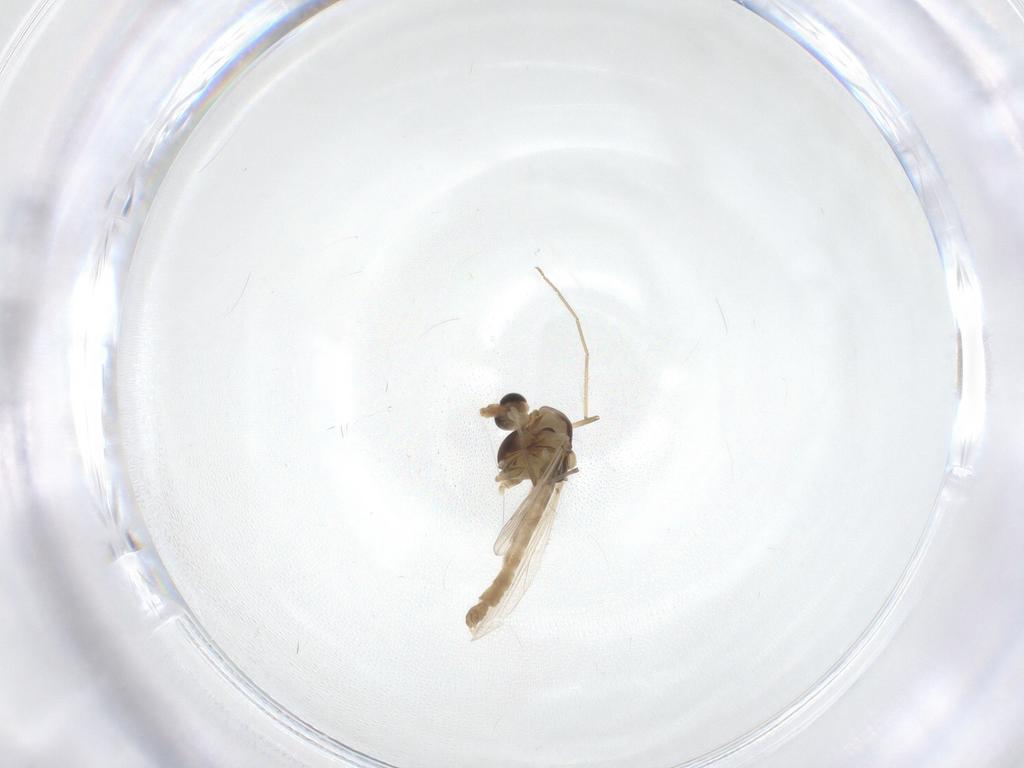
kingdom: Animalia
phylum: Arthropoda
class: Insecta
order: Diptera
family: Chironomidae
